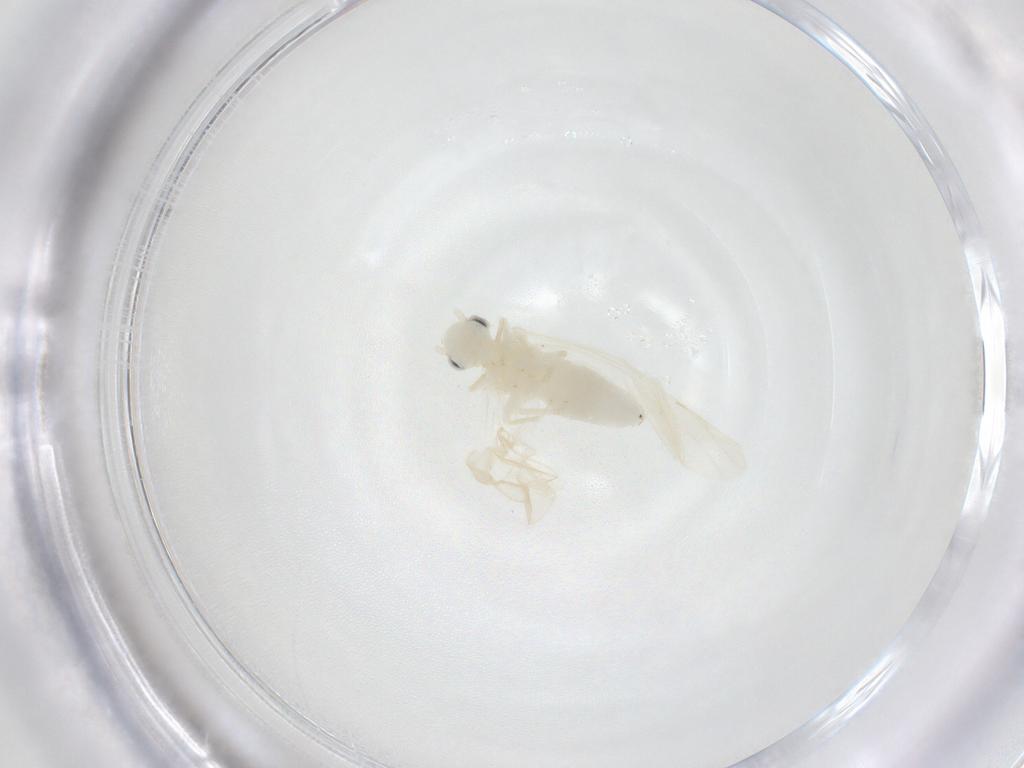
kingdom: Animalia
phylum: Arthropoda
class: Insecta
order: Psocodea
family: Caeciliusidae
